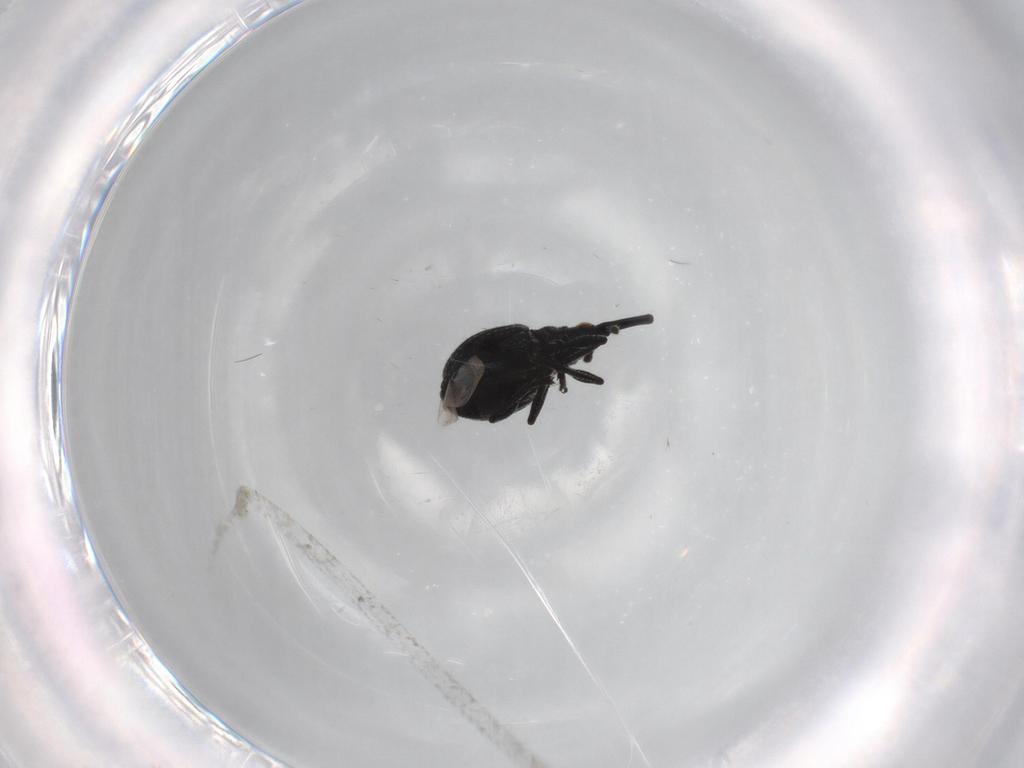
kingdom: Animalia
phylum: Arthropoda
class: Insecta
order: Coleoptera
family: Brentidae
